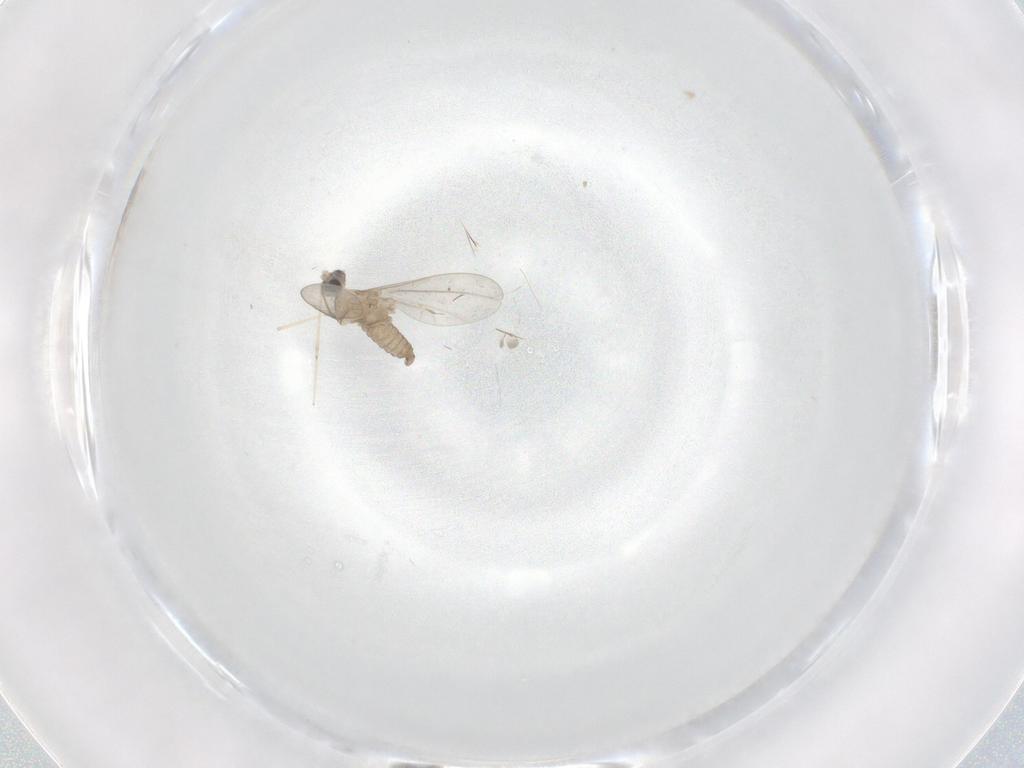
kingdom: Animalia
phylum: Arthropoda
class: Insecta
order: Diptera
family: Cecidomyiidae
